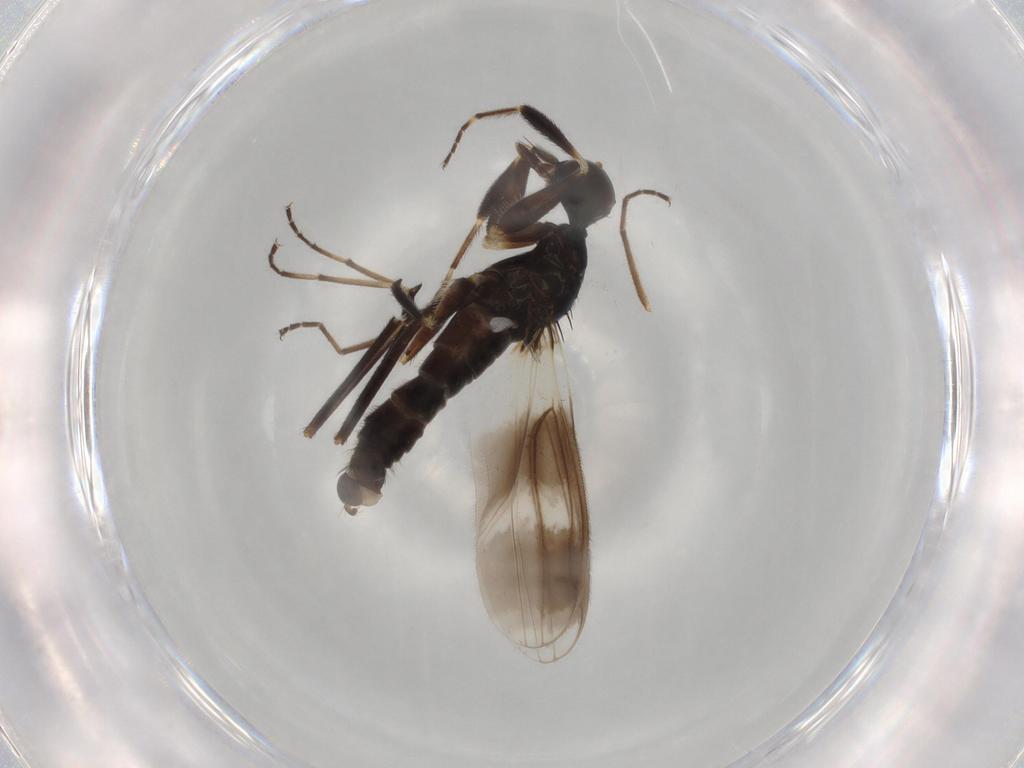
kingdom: Animalia
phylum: Arthropoda
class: Insecta
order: Diptera
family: Hybotidae
